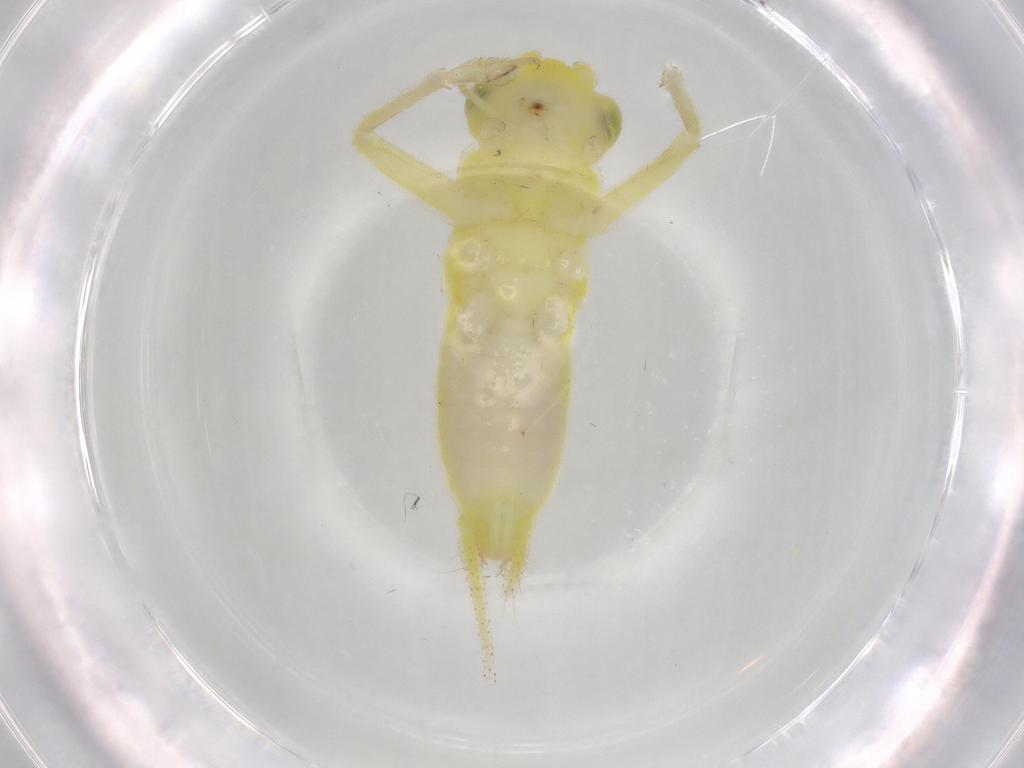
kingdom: Animalia
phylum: Arthropoda
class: Insecta
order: Orthoptera
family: Trigonidiidae
